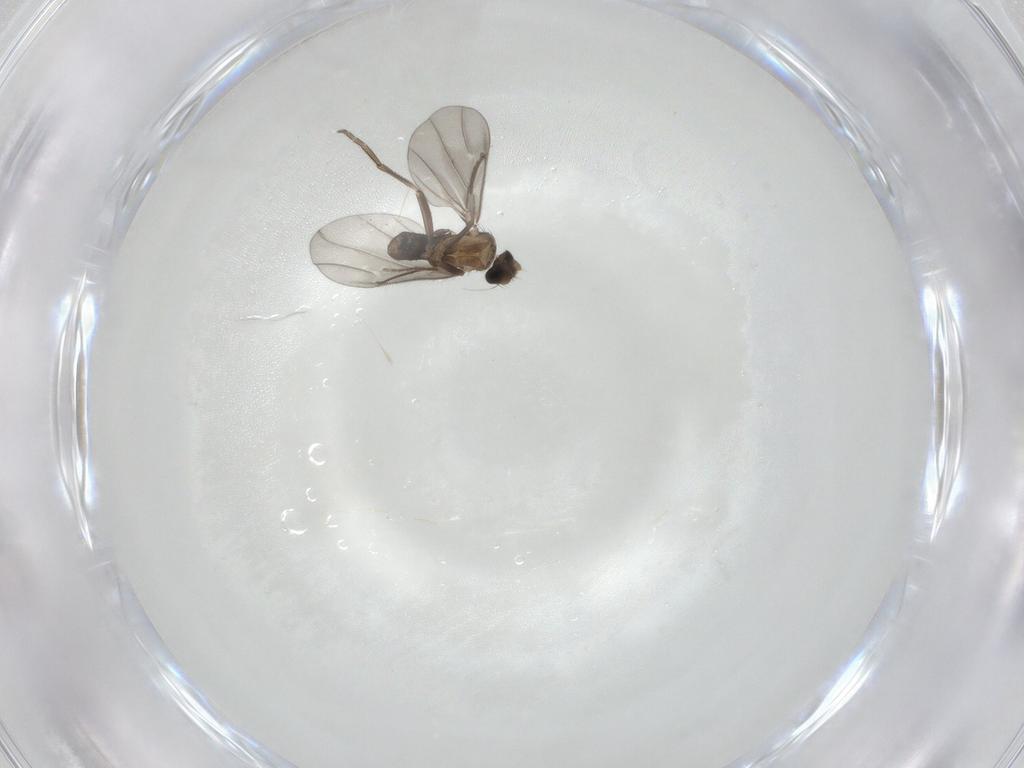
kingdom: Animalia
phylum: Arthropoda
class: Insecta
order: Diptera
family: Phoridae
